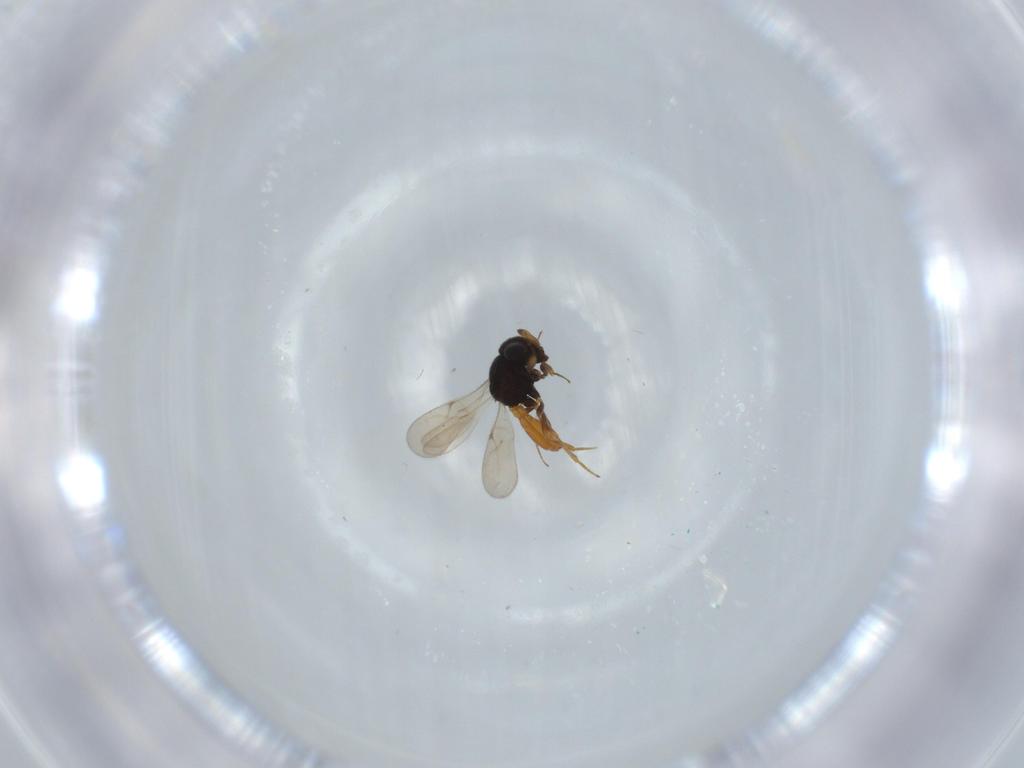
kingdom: Animalia
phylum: Arthropoda
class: Insecta
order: Hymenoptera
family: Scelionidae
